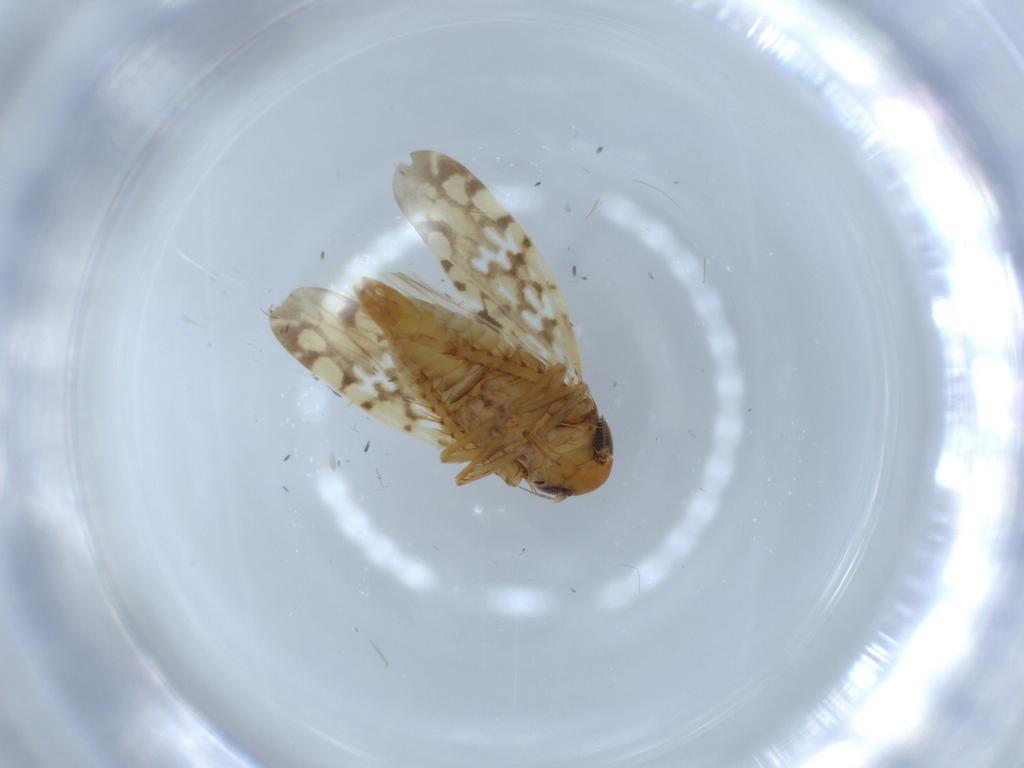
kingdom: Animalia
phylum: Arthropoda
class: Insecta
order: Hemiptera
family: Cicadellidae
